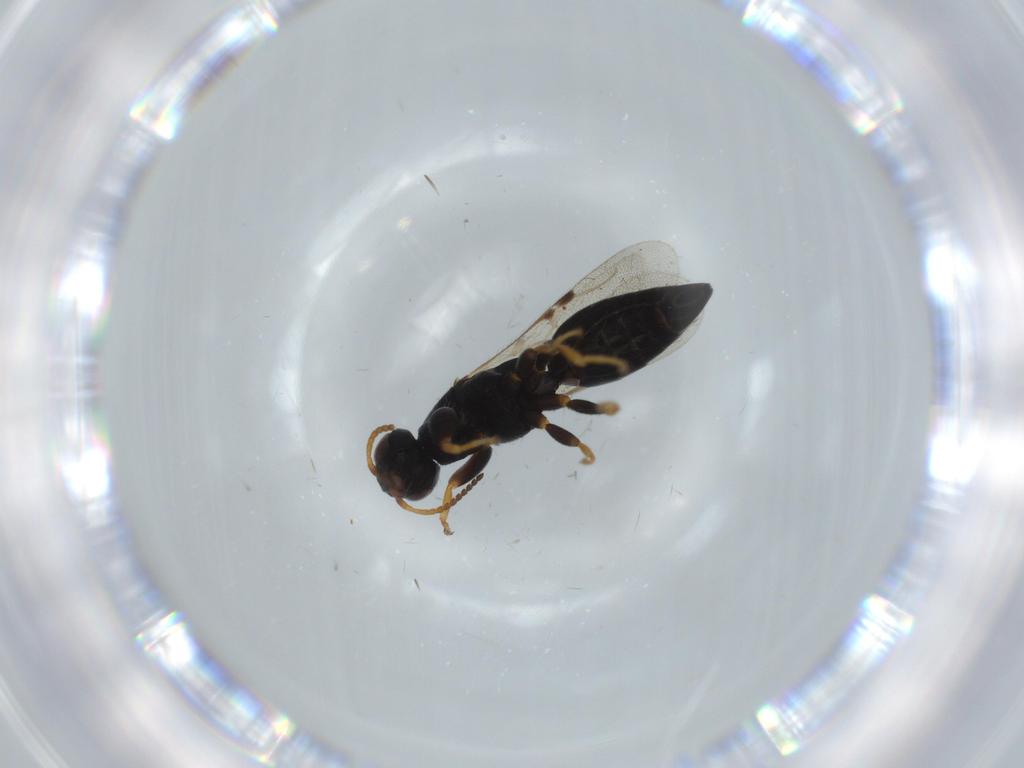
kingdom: Animalia
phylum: Arthropoda
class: Insecta
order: Hymenoptera
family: Bethylidae
